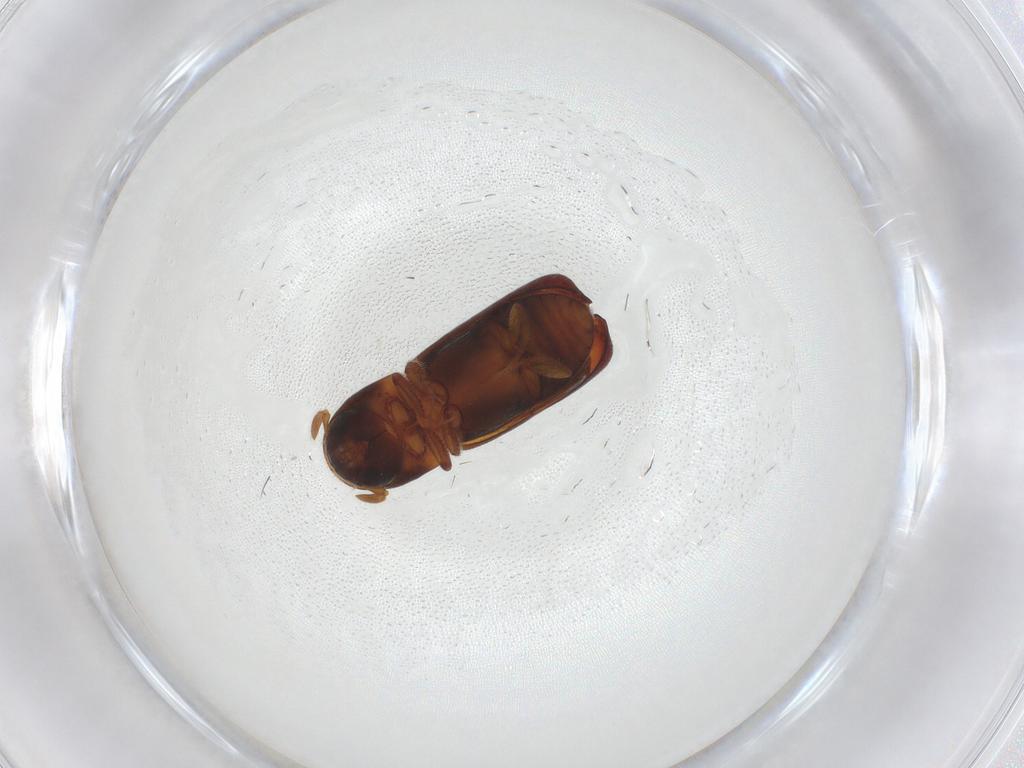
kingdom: Animalia
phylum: Arthropoda
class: Insecta
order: Coleoptera
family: Curculionidae
